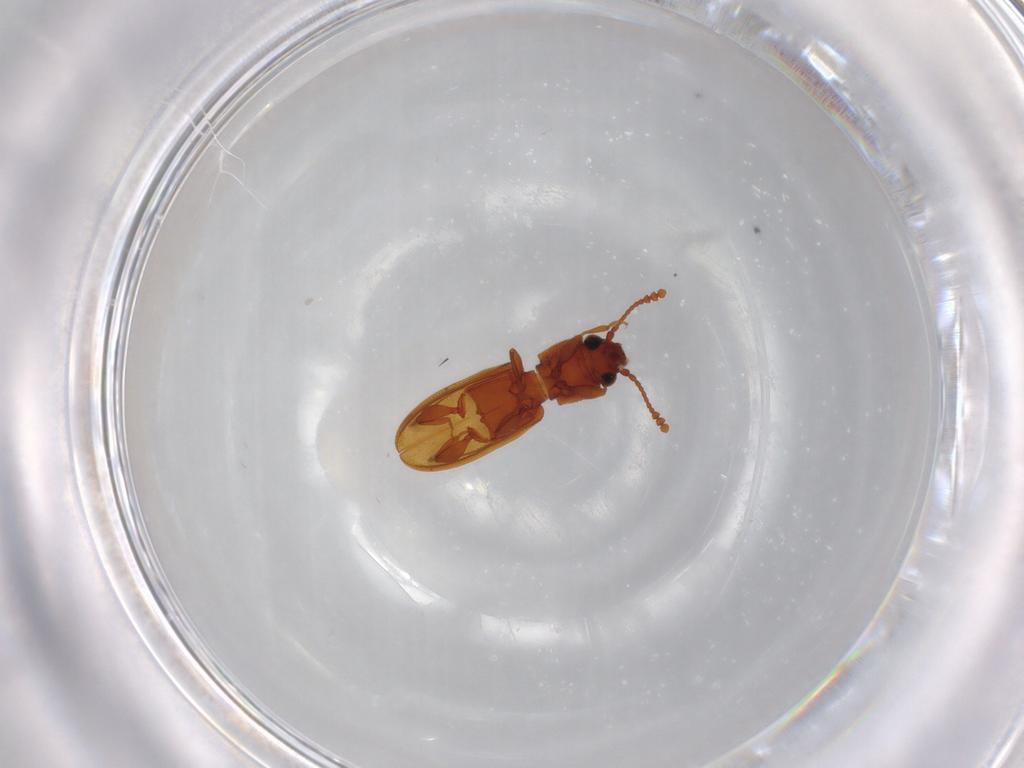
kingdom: Animalia
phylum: Arthropoda
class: Insecta
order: Coleoptera
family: Silvanidae
